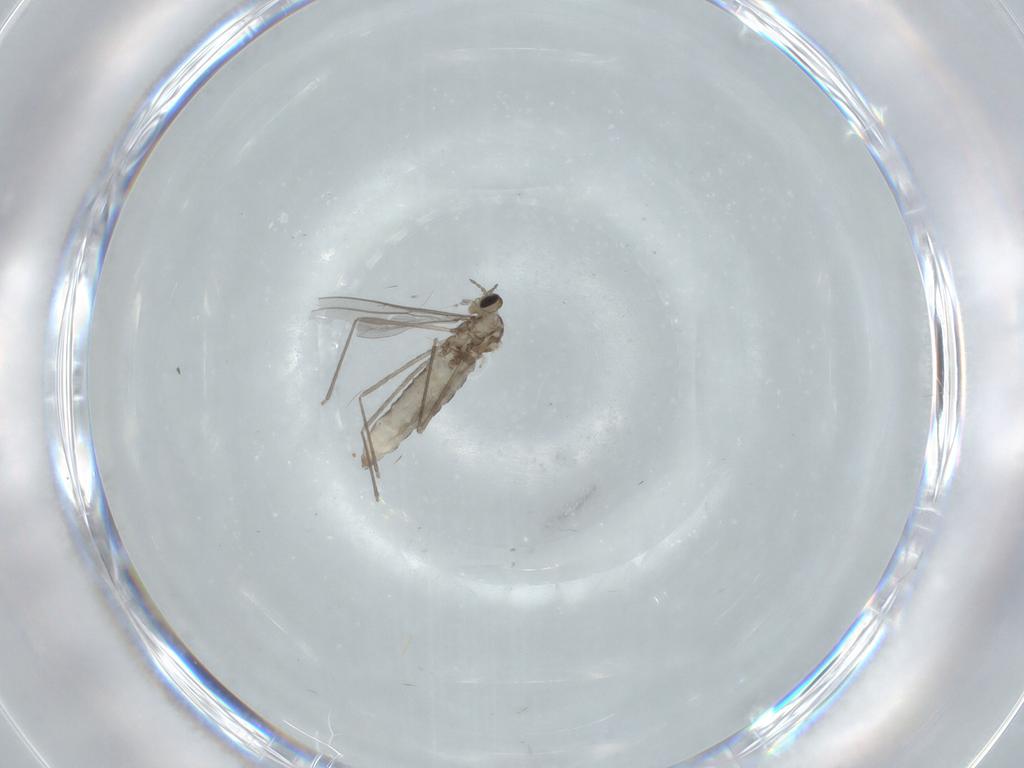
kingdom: Animalia
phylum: Arthropoda
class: Insecta
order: Diptera
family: Cecidomyiidae
